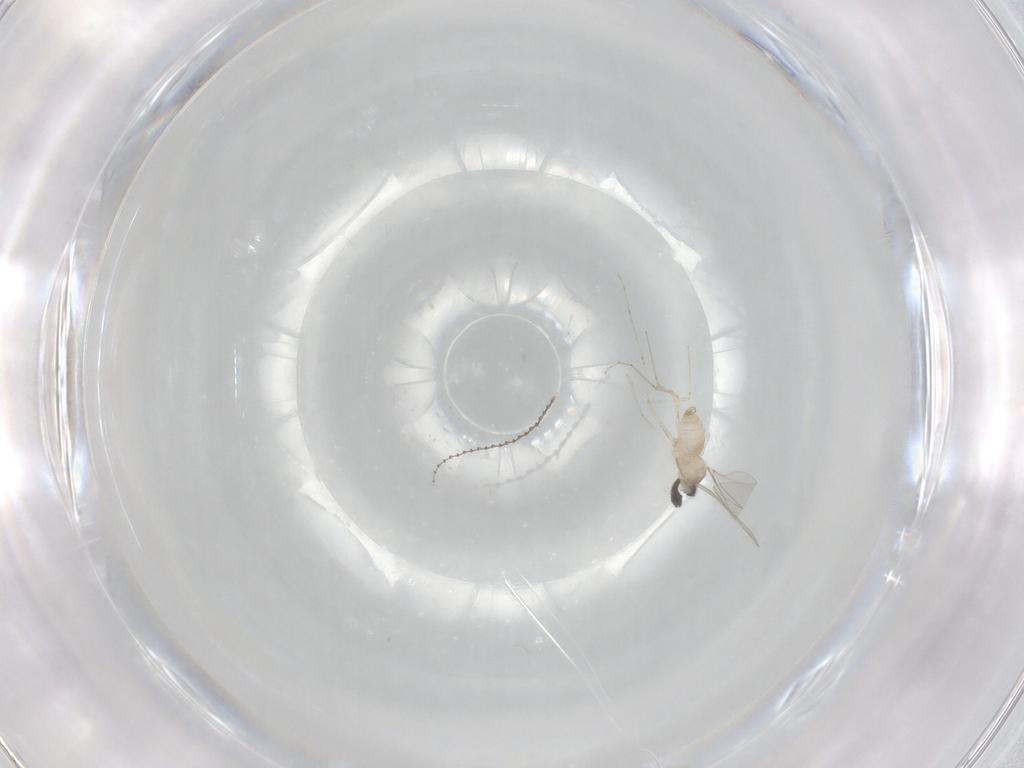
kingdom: Animalia
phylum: Arthropoda
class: Insecta
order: Diptera
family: Cecidomyiidae
